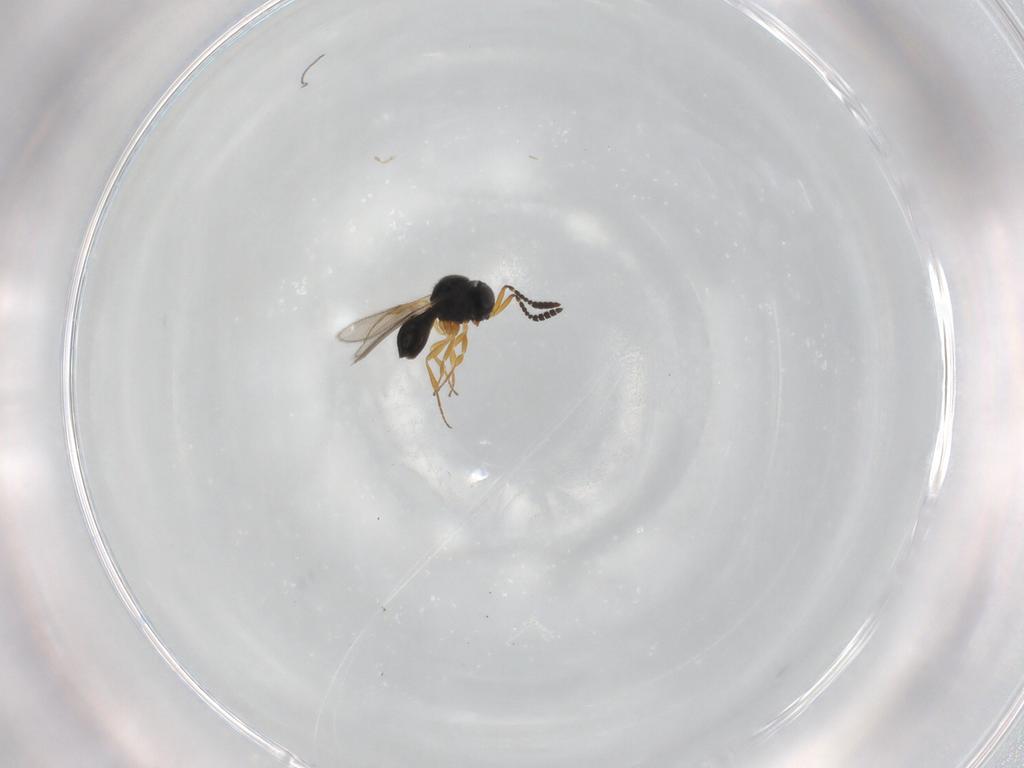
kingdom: Animalia
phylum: Arthropoda
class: Insecta
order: Hymenoptera
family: Scelionidae
